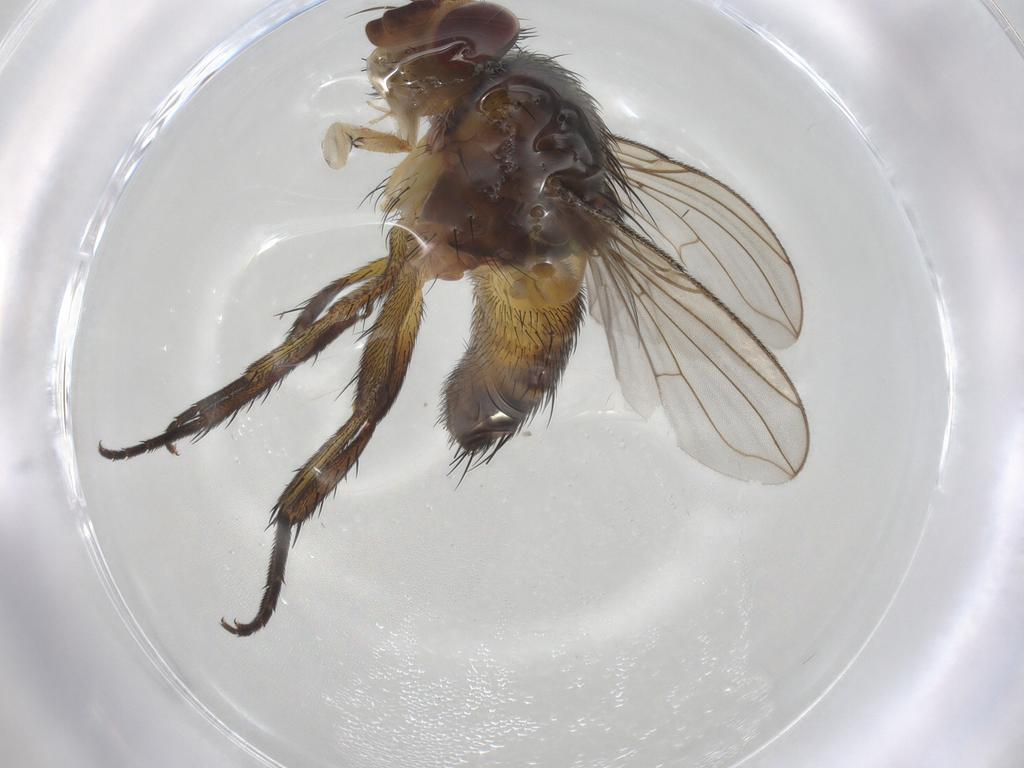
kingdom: Animalia
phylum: Arthropoda
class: Insecta
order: Diptera
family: Tachinidae
